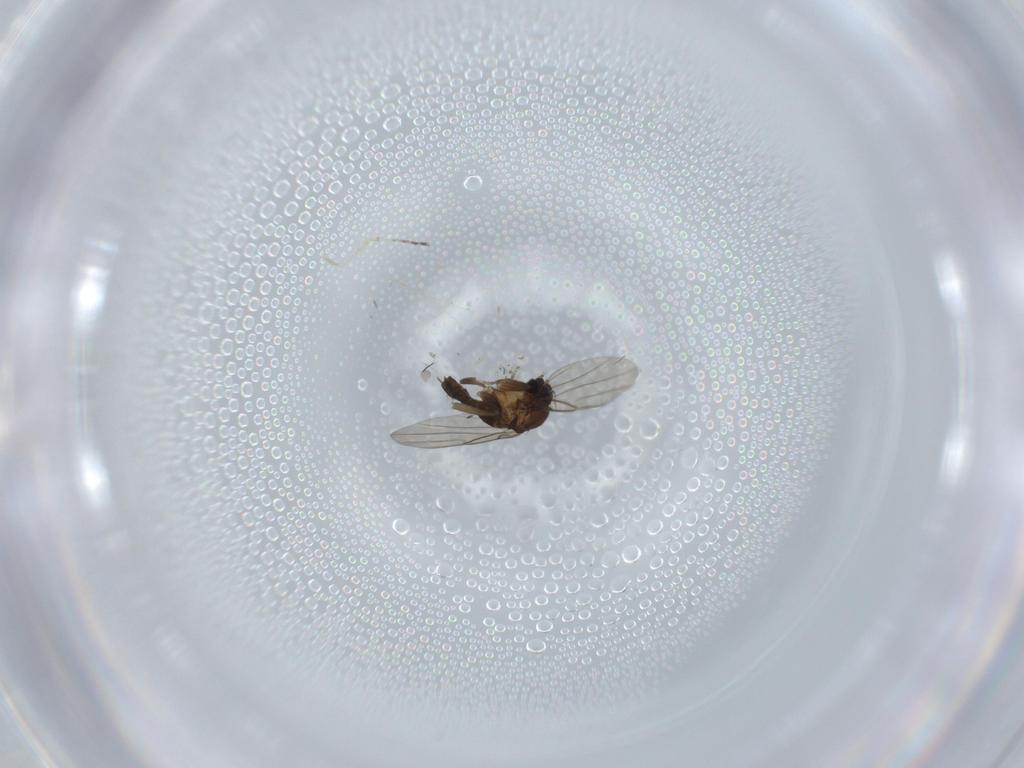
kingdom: Animalia
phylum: Arthropoda
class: Insecta
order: Diptera
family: Phoridae
